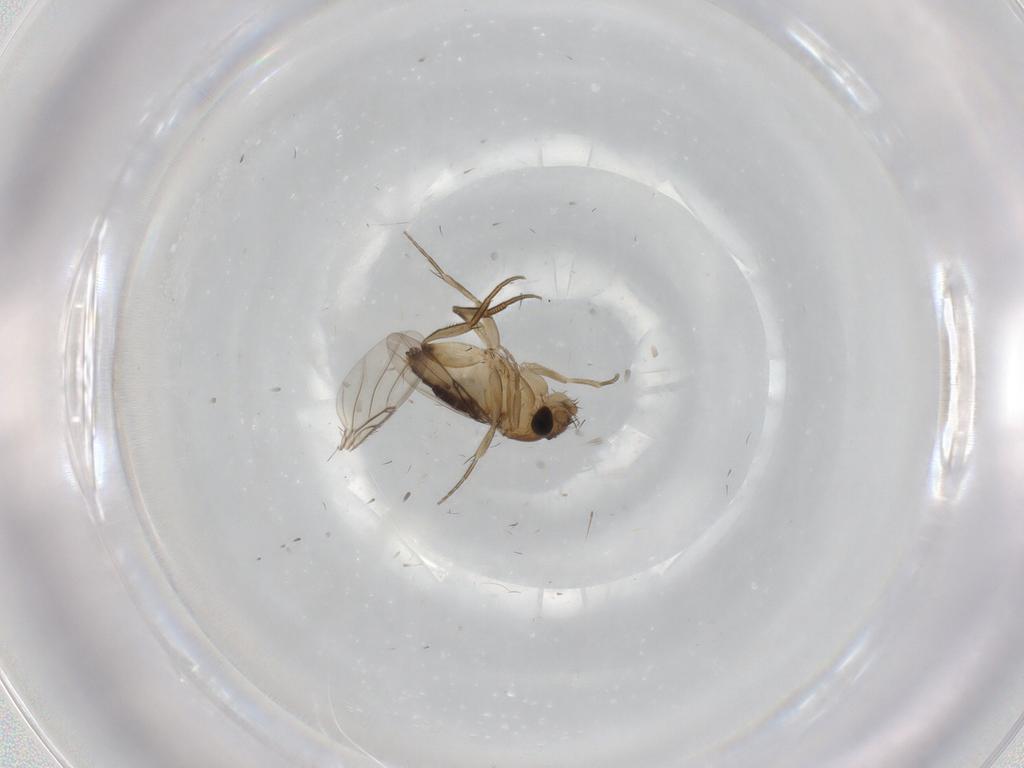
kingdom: Animalia
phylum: Arthropoda
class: Insecta
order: Diptera
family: Phoridae
